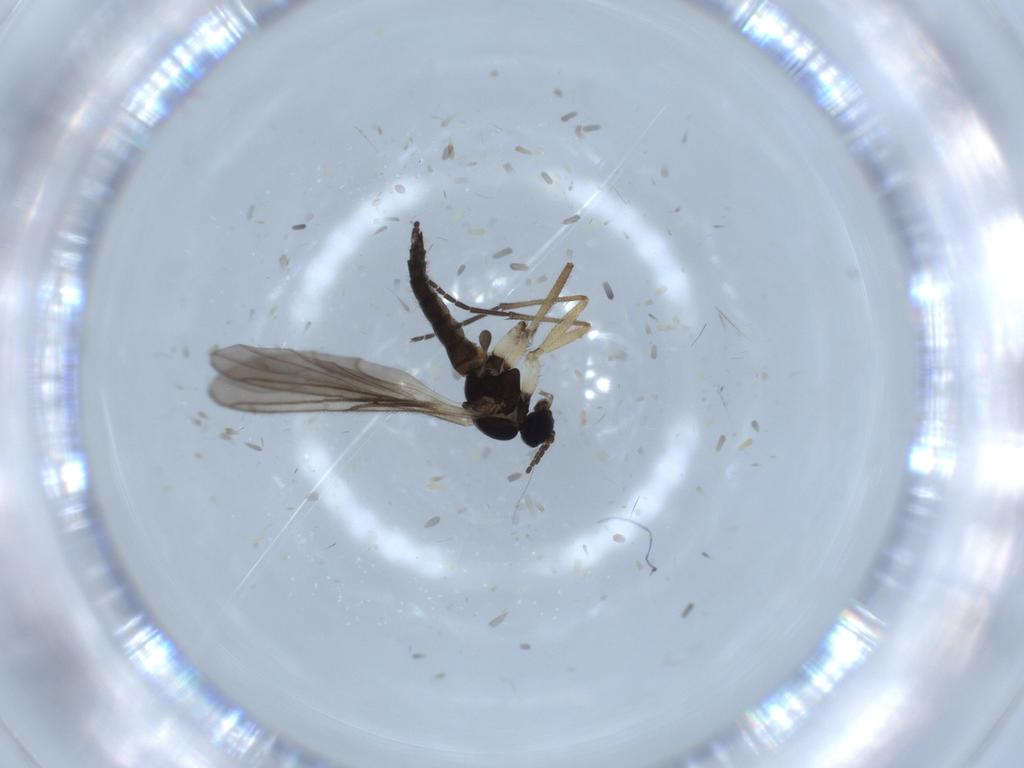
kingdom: Animalia
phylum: Arthropoda
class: Insecta
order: Diptera
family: Sciaridae
